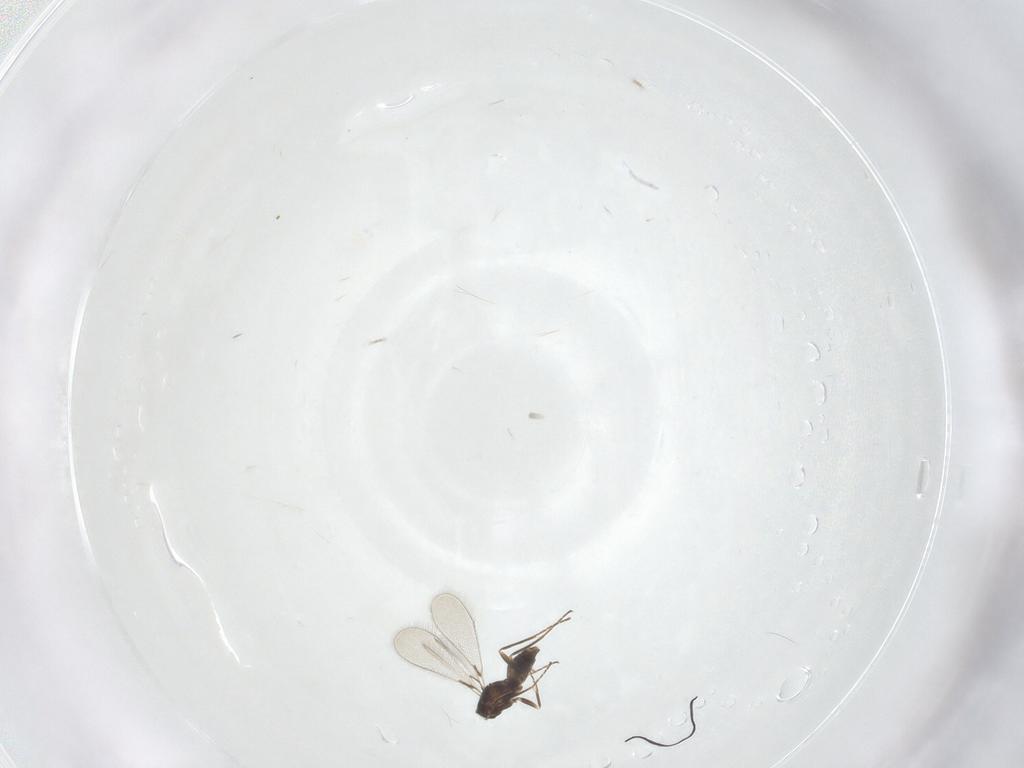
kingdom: Animalia
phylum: Arthropoda
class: Insecta
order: Hymenoptera
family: Mymaridae
